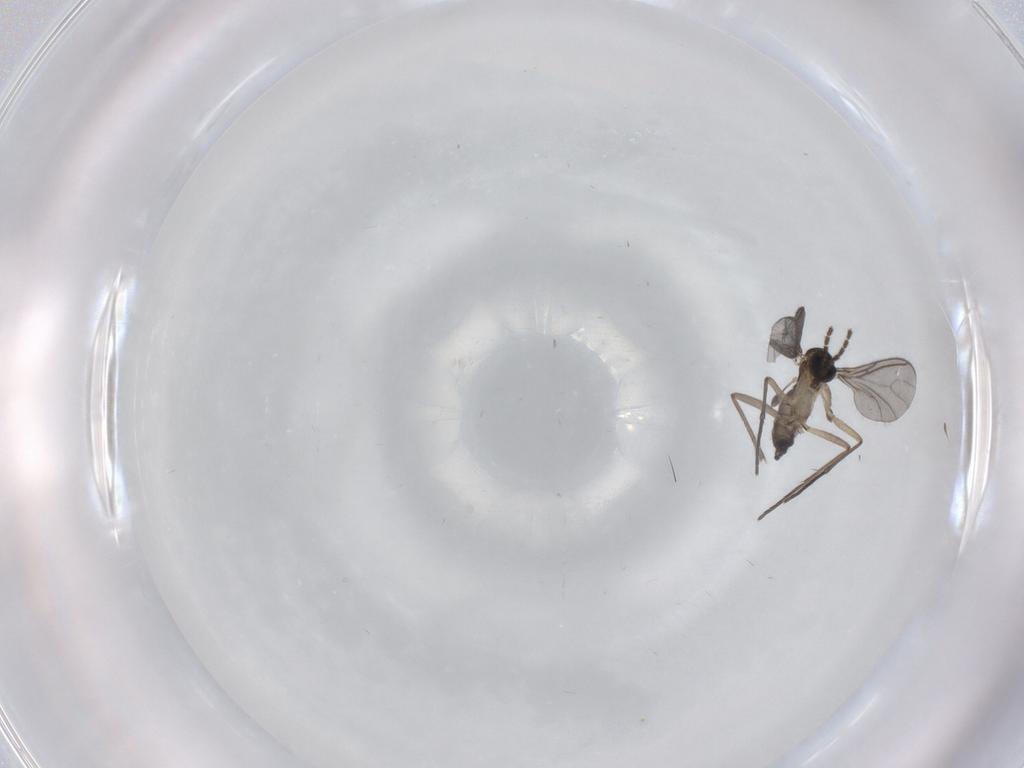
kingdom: Animalia
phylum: Arthropoda
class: Insecta
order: Diptera
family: Sciaridae
